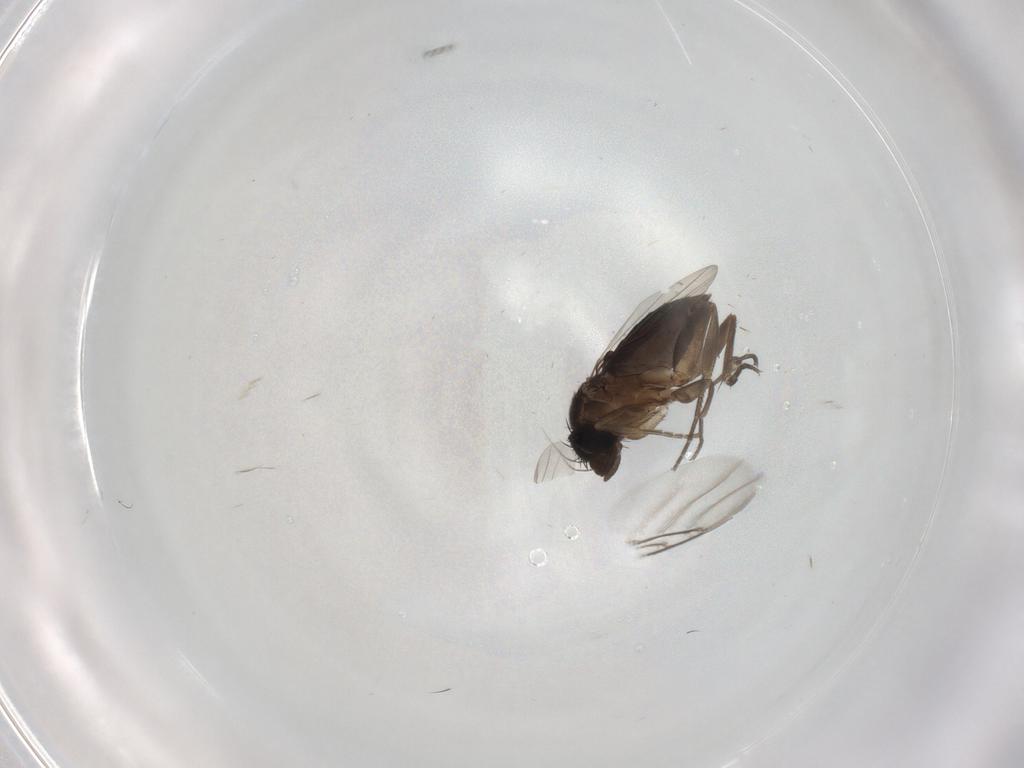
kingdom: Animalia
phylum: Arthropoda
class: Insecta
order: Diptera
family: Phoridae
